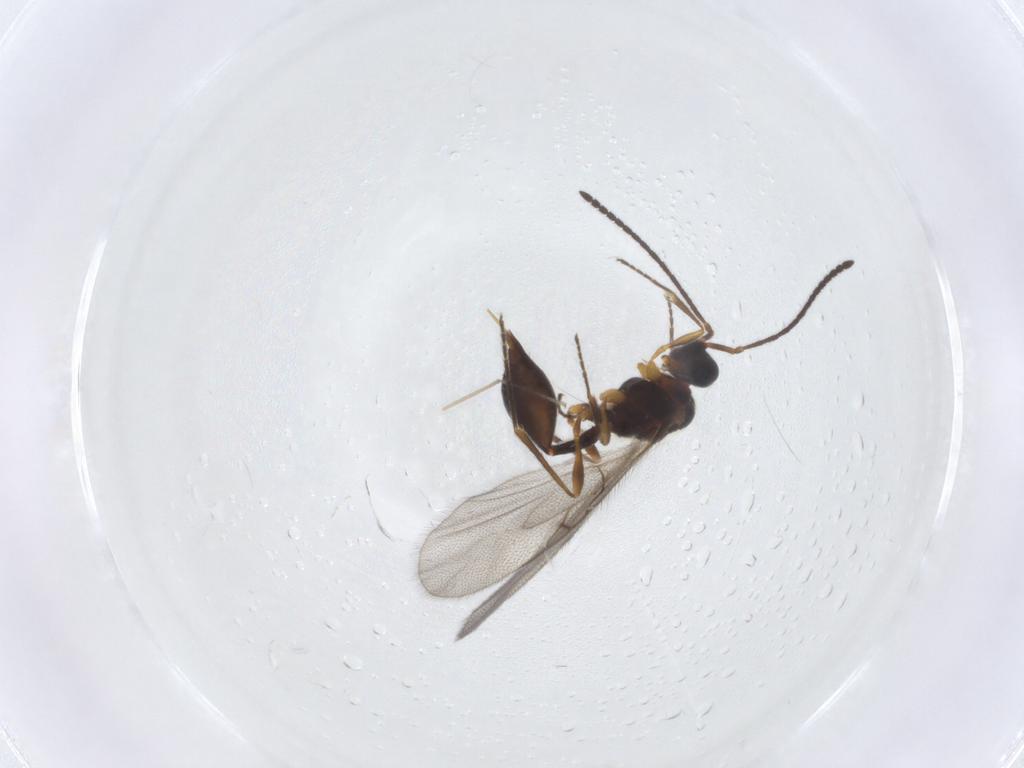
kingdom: Animalia
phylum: Arthropoda
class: Insecta
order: Hymenoptera
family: Diapriidae
